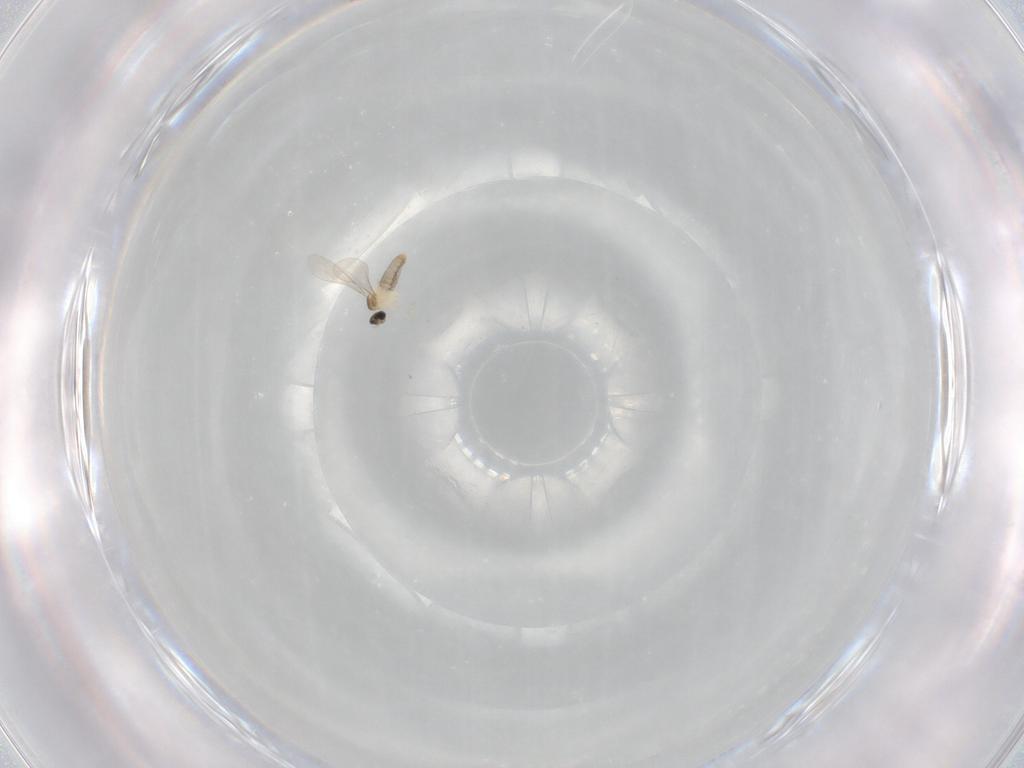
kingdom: Animalia
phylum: Arthropoda
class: Insecta
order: Diptera
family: Cecidomyiidae
